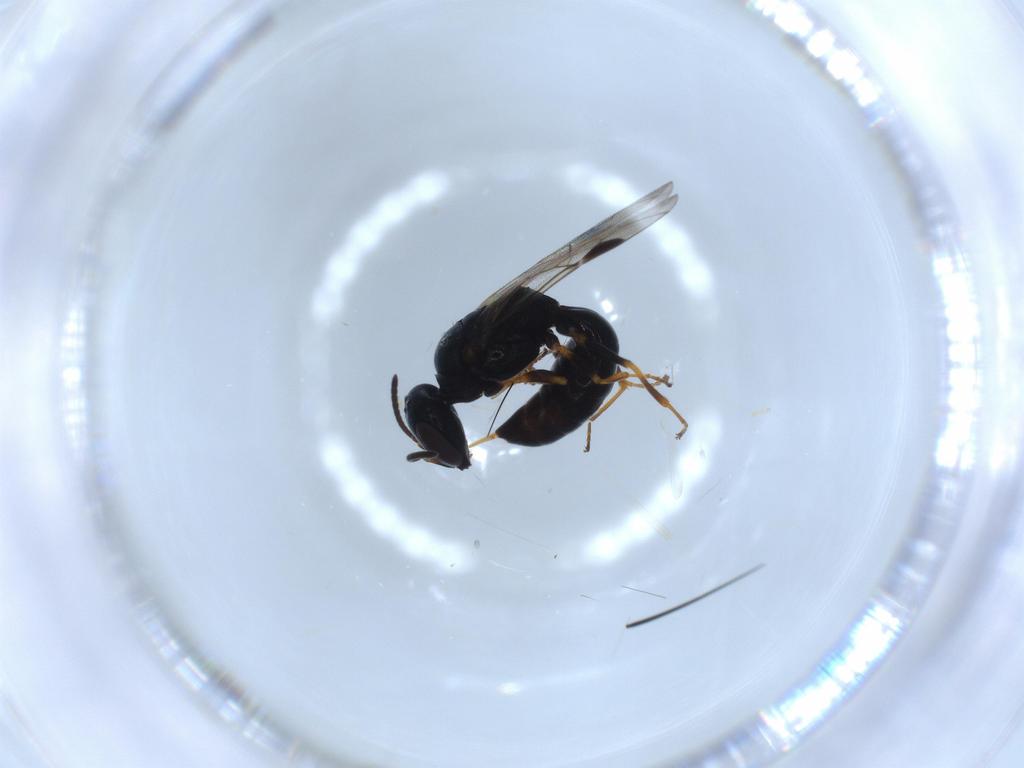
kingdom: Animalia
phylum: Arthropoda
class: Insecta
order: Hymenoptera
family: Crabronidae
